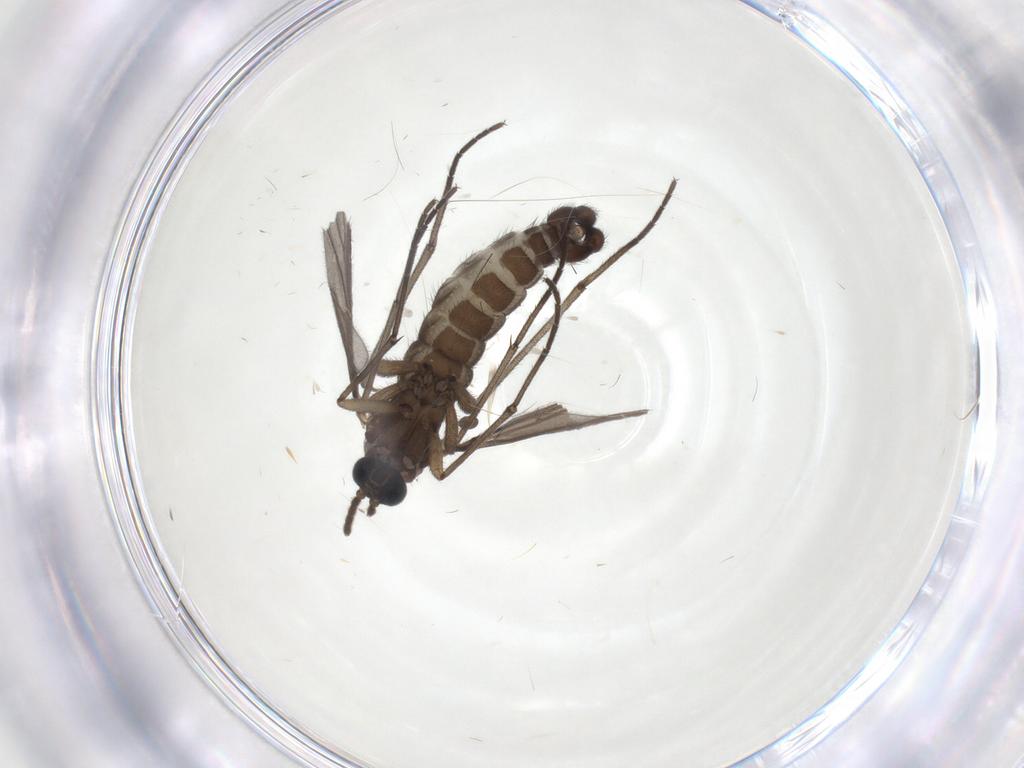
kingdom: Animalia
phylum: Arthropoda
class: Insecta
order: Diptera
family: Sciaridae
